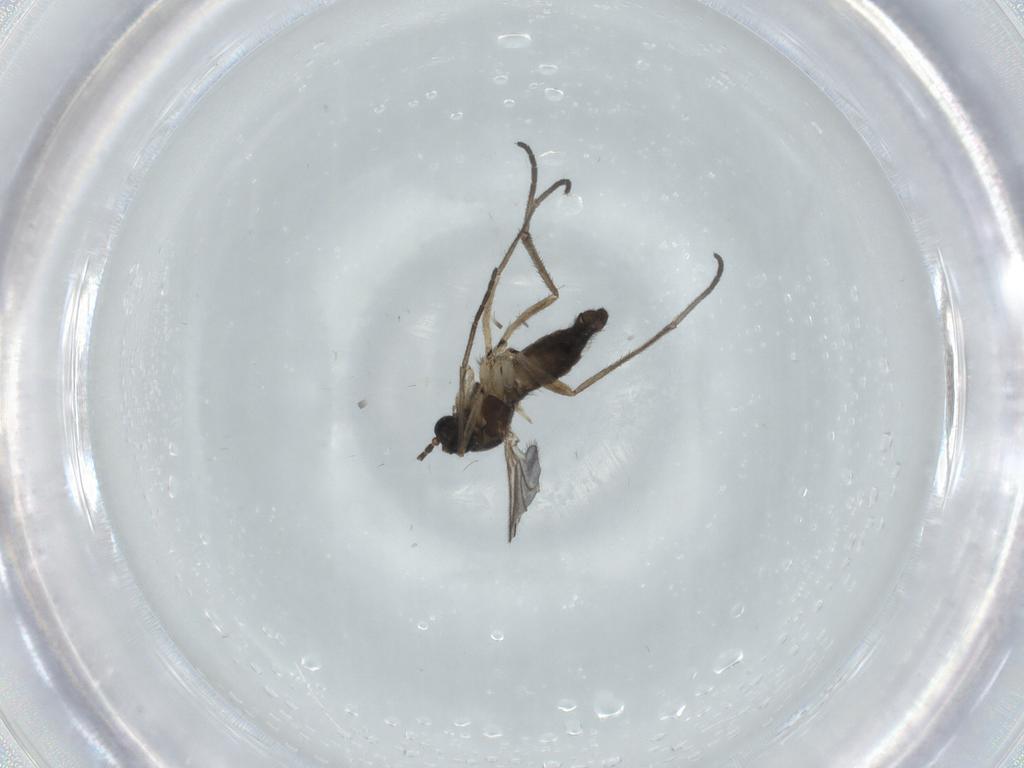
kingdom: Animalia
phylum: Arthropoda
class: Insecta
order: Diptera
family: Sciaridae
